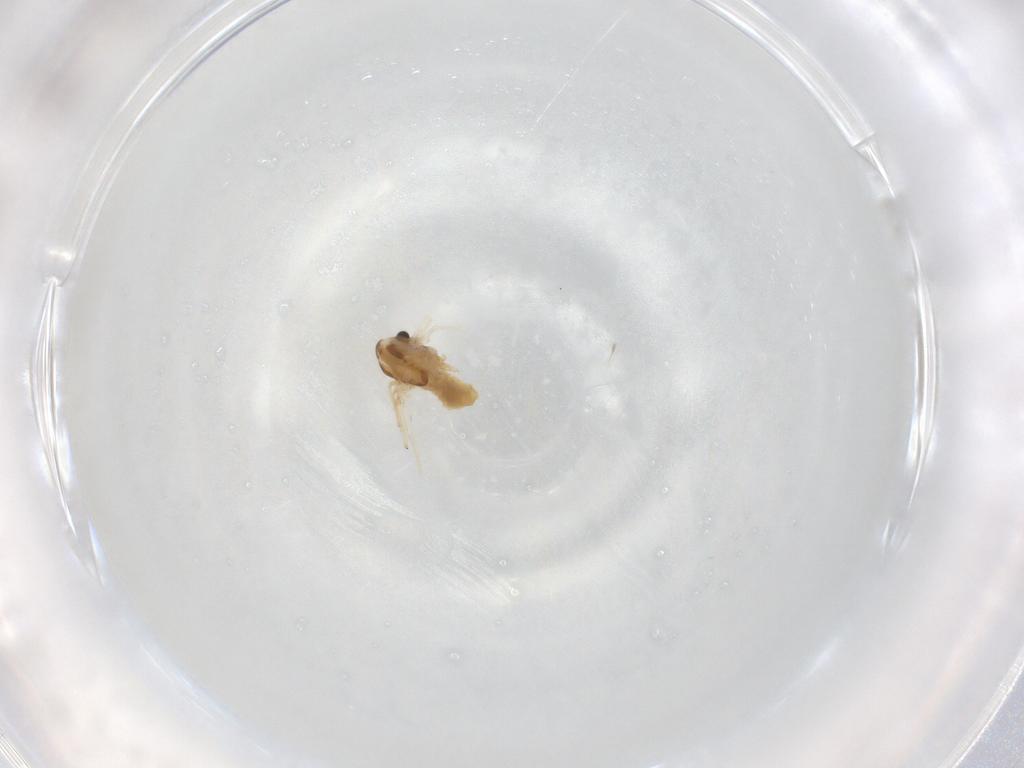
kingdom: Animalia
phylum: Arthropoda
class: Insecta
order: Diptera
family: Chironomidae
